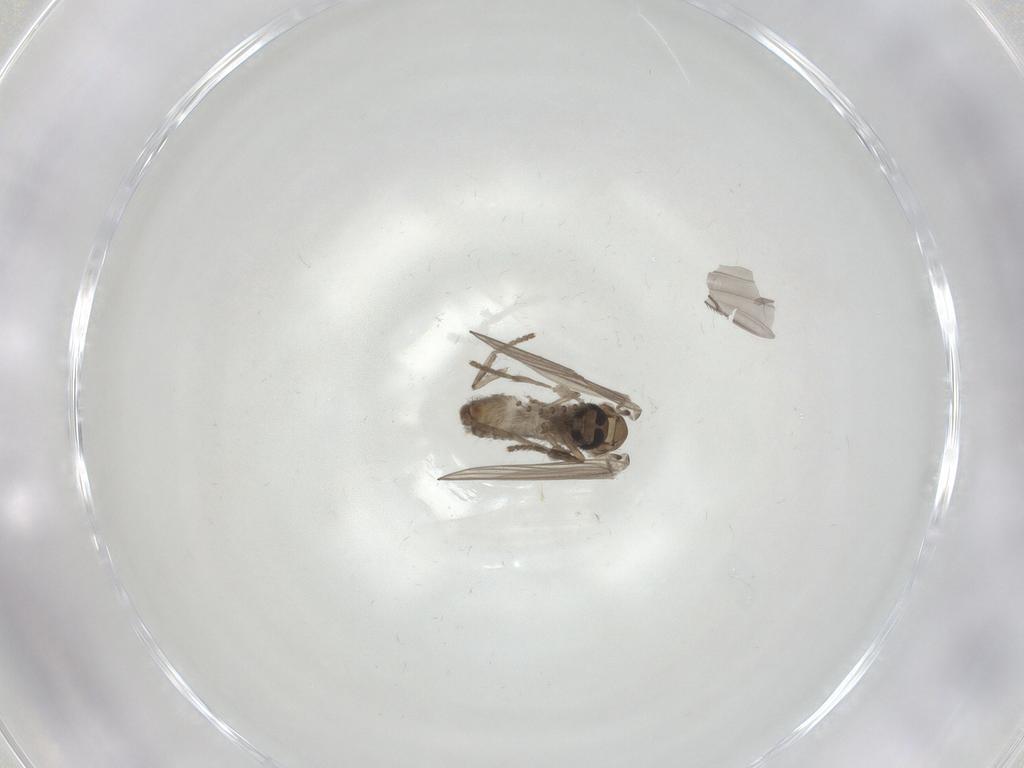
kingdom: Animalia
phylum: Arthropoda
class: Insecta
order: Diptera
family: Psychodidae
